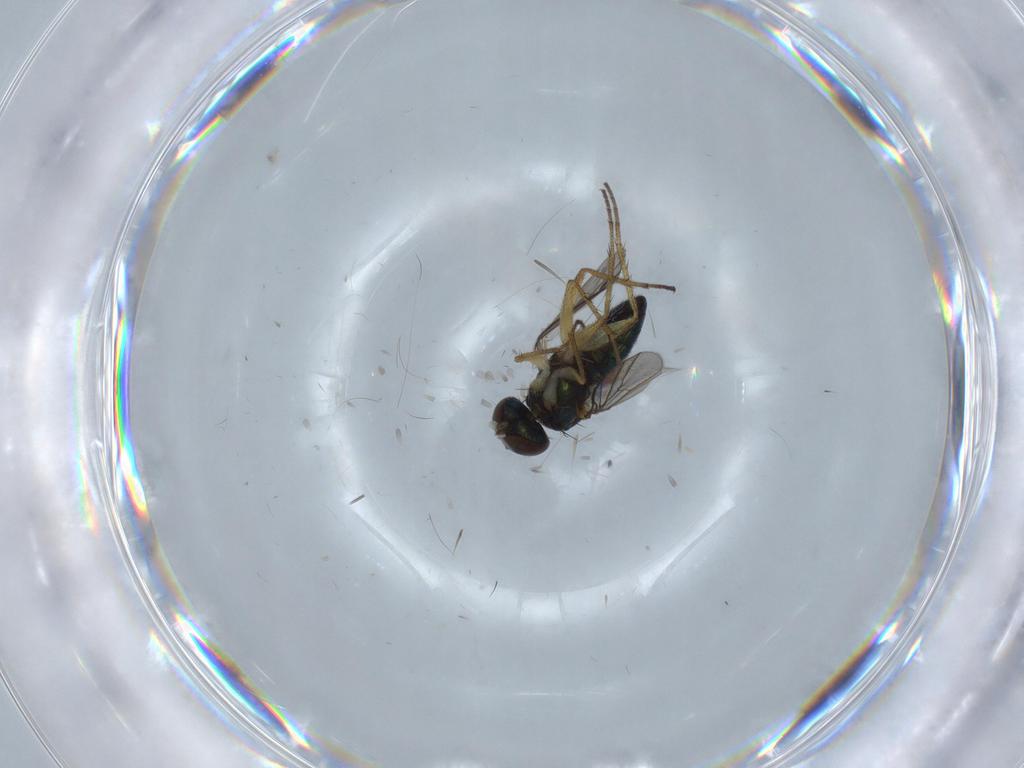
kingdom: Animalia
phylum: Arthropoda
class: Insecta
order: Diptera
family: Dolichopodidae
